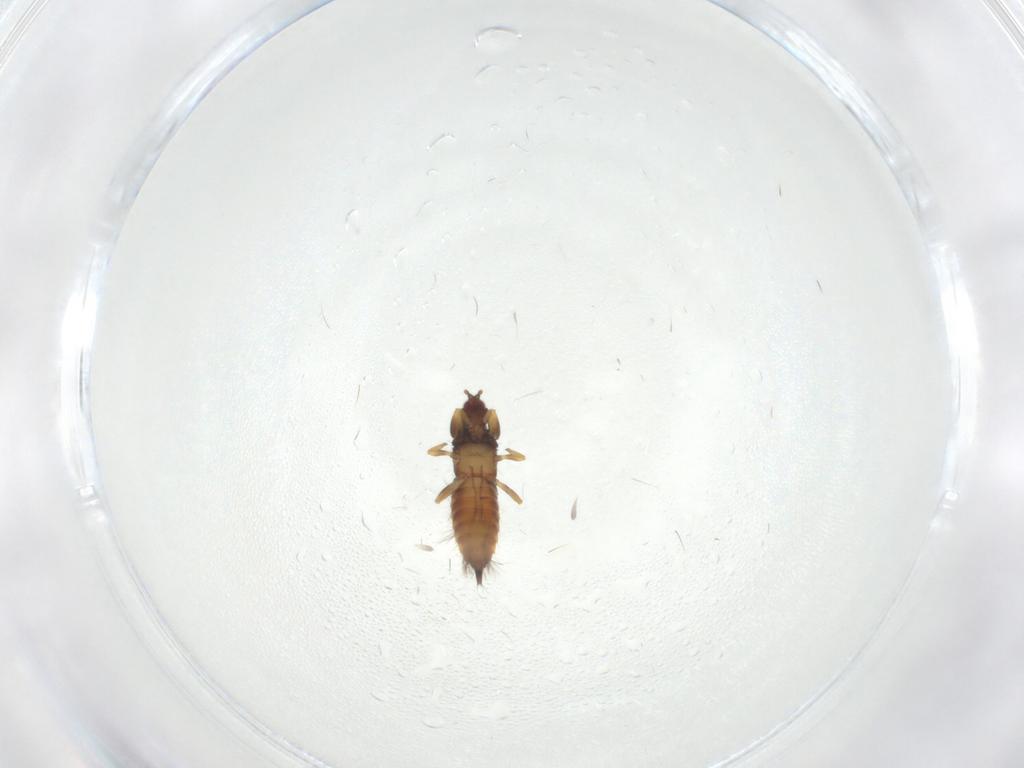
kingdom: Animalia
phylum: Arthropoda
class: Insecta
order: Thysanoptera
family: Phlaeothripidae
